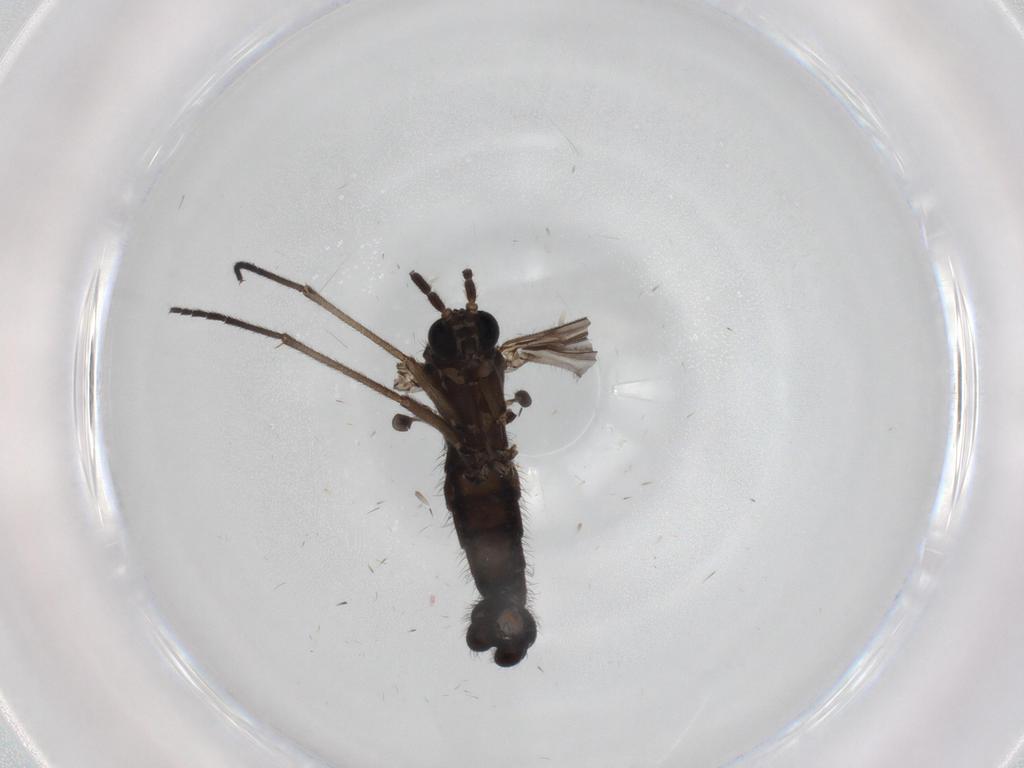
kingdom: Animalia
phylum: Arthropoda
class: Insecta
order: Diptera
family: Sciaridae
